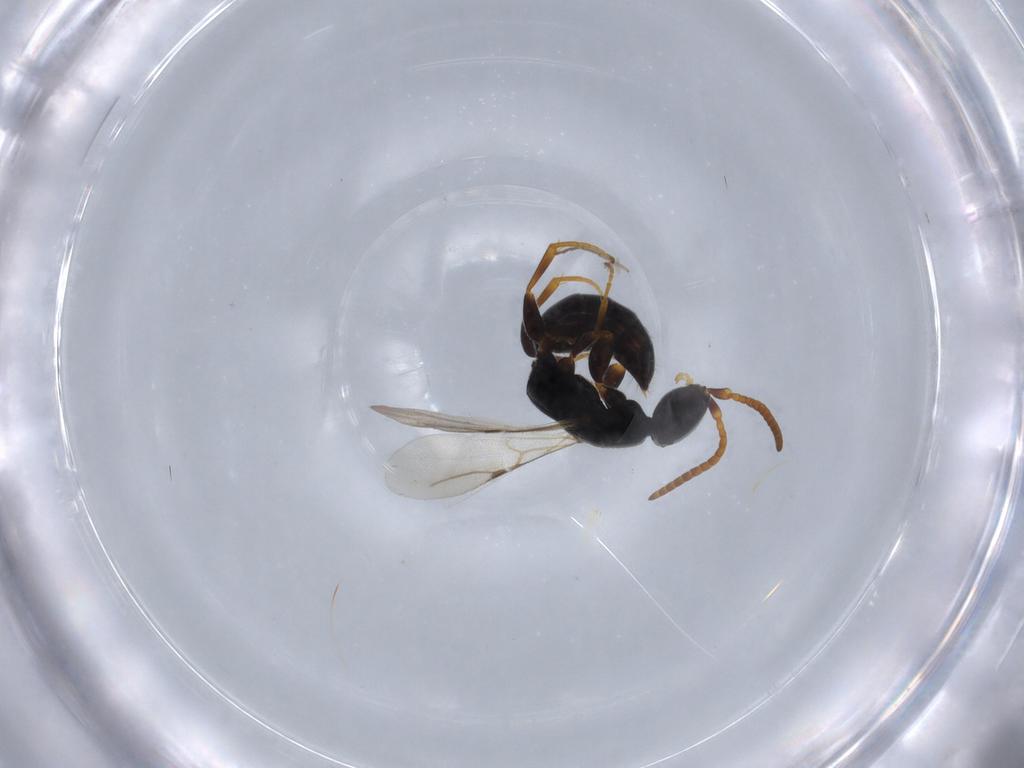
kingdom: Animalia
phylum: Arthropoda
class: Insecta
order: Hymenoptera
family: Bethylidae
